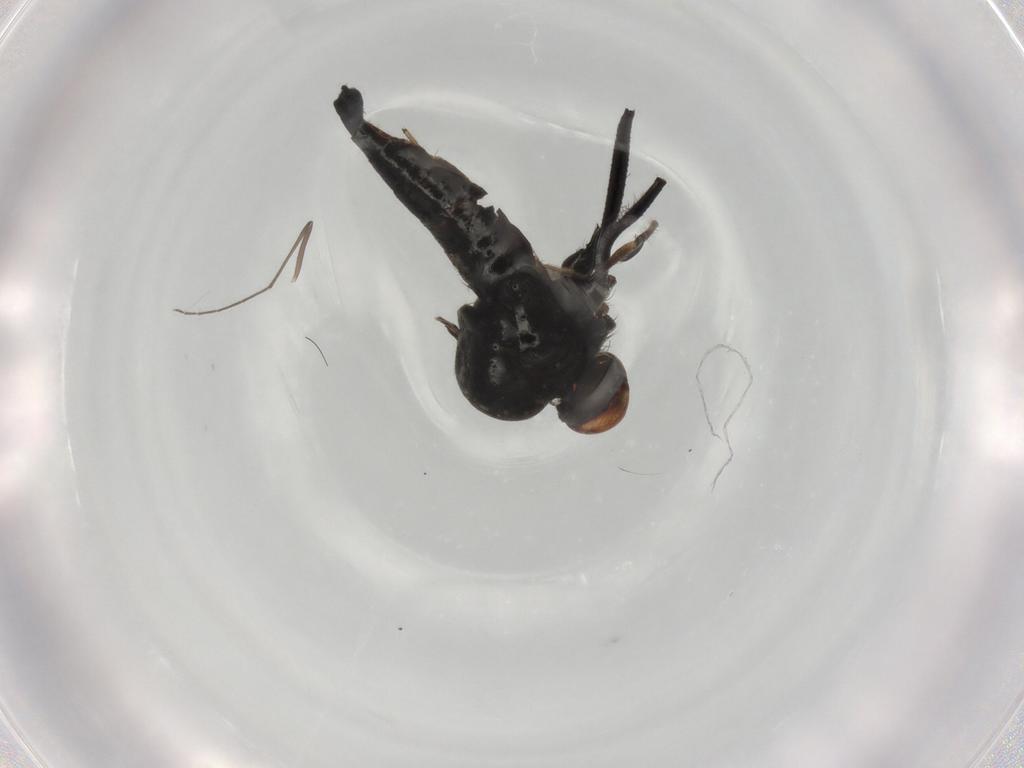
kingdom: Animalia
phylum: Arthropoda
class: Insecta
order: Diptera
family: Hybotidae
